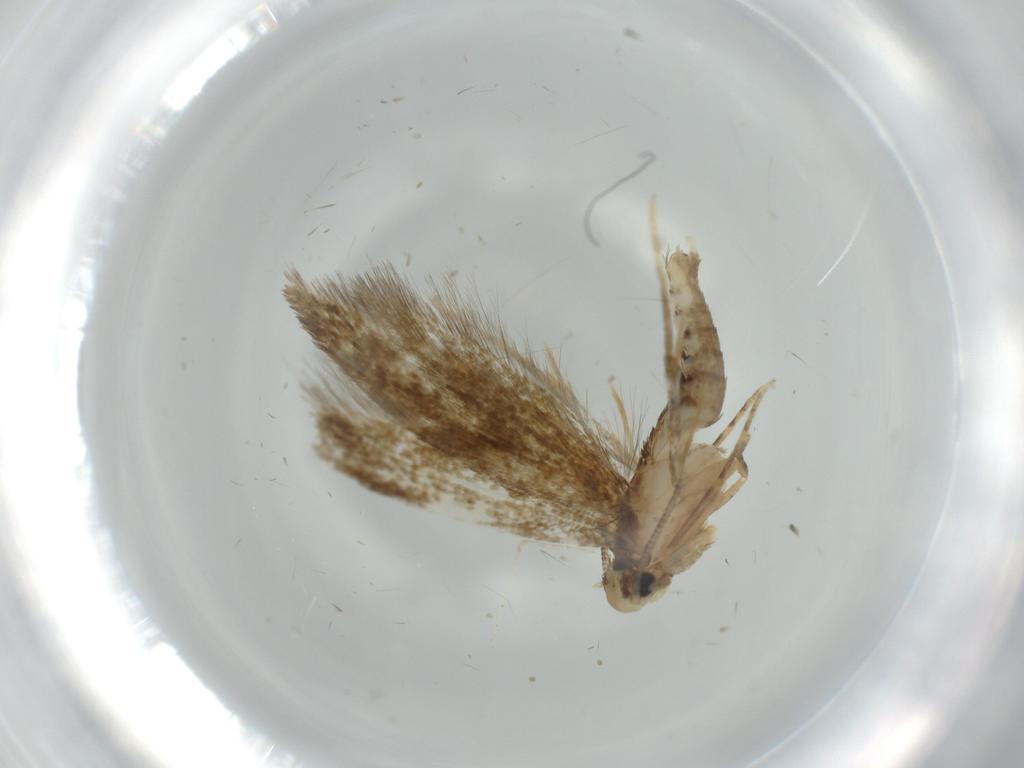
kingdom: Animalia
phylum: Arthropoda
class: Insecta
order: Lepidoptera
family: Tineidae
